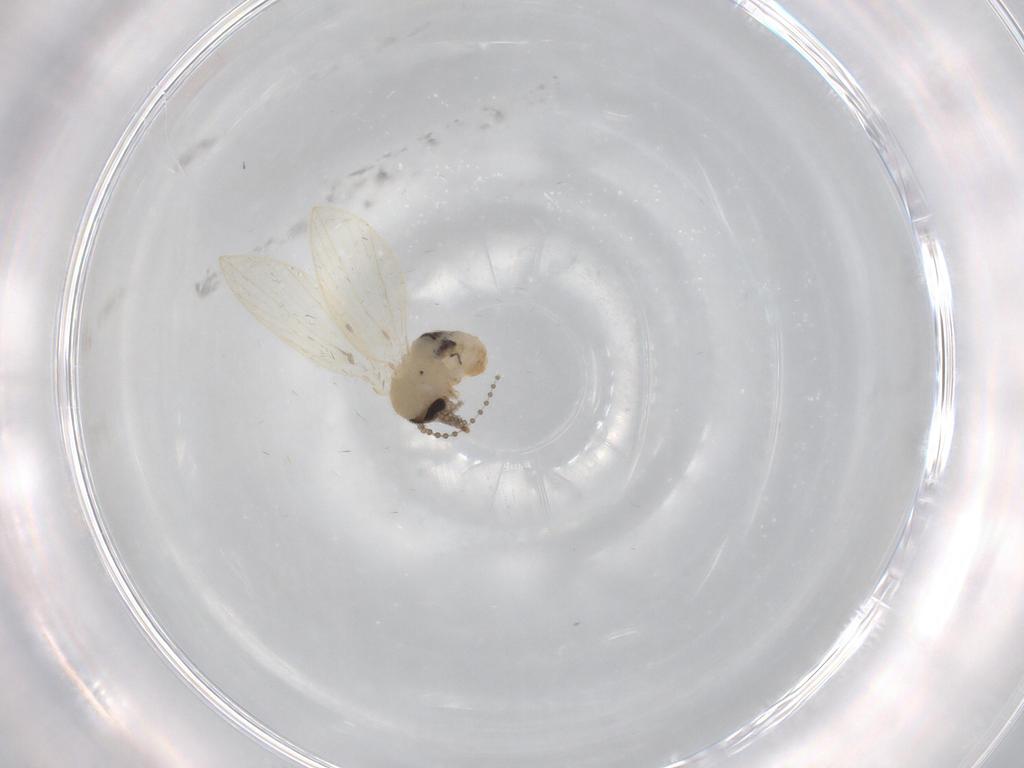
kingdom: Animalia
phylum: Arthropoda
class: Insecta
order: Diptera
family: Psychodidae
